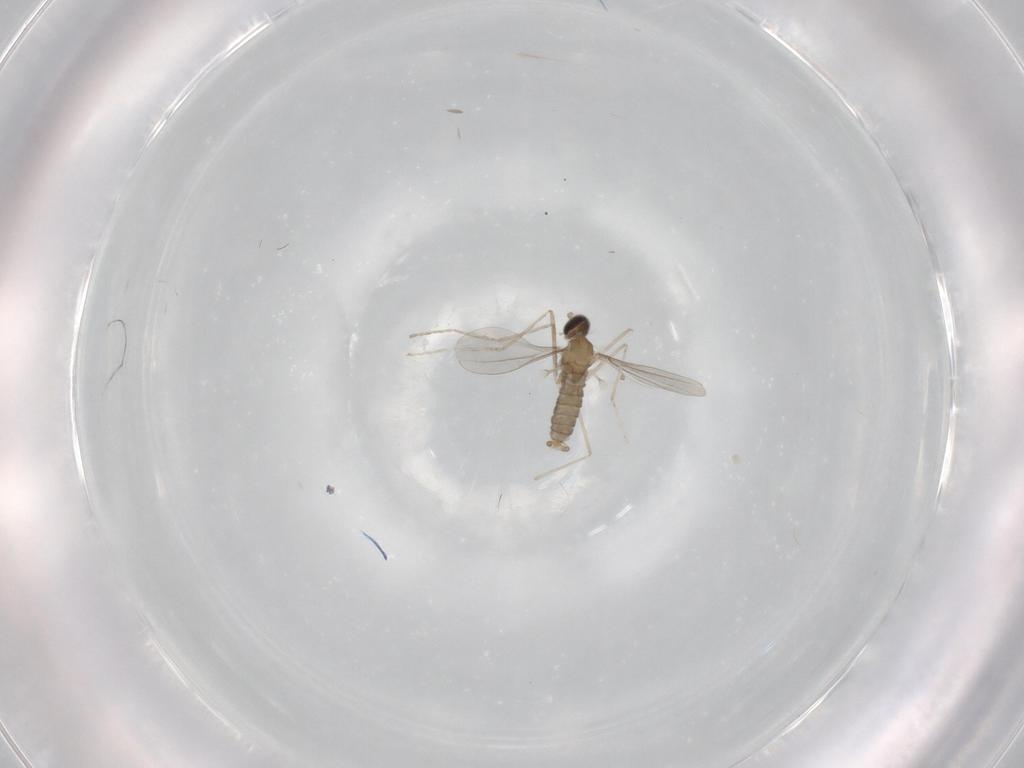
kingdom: Animalia
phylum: Arthropoda
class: Insecta
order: Diptera
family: Cecidomyiidae
